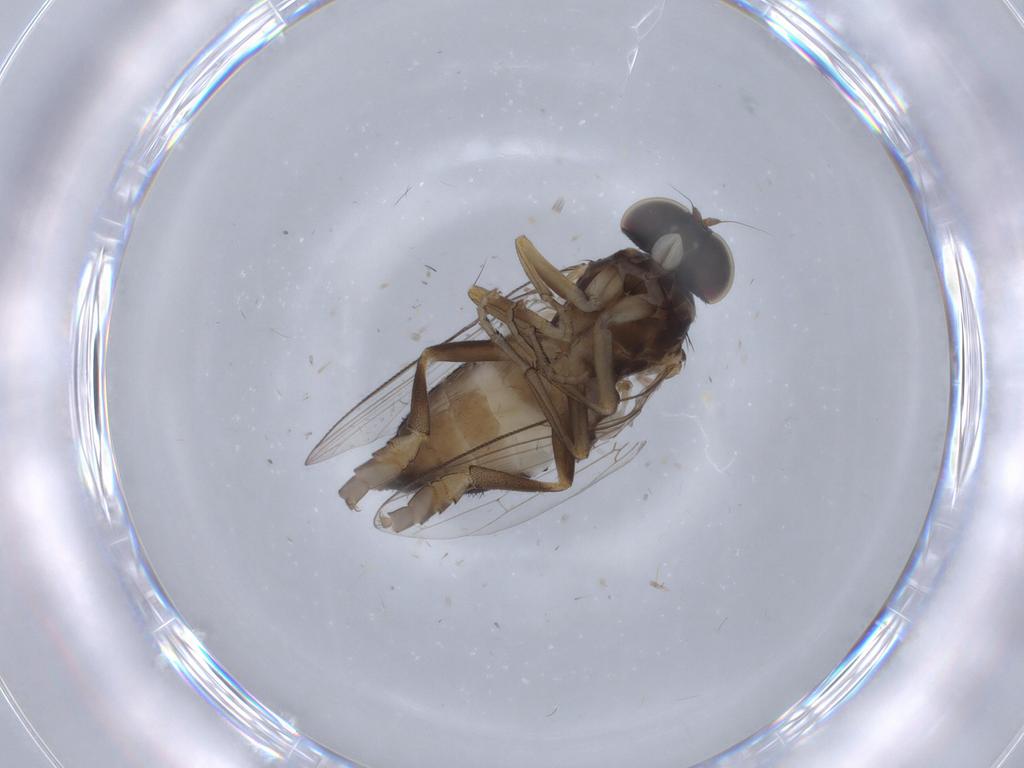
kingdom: Animalia
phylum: Arthropoda
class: Insecta
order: Diptera
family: Platypezidae
